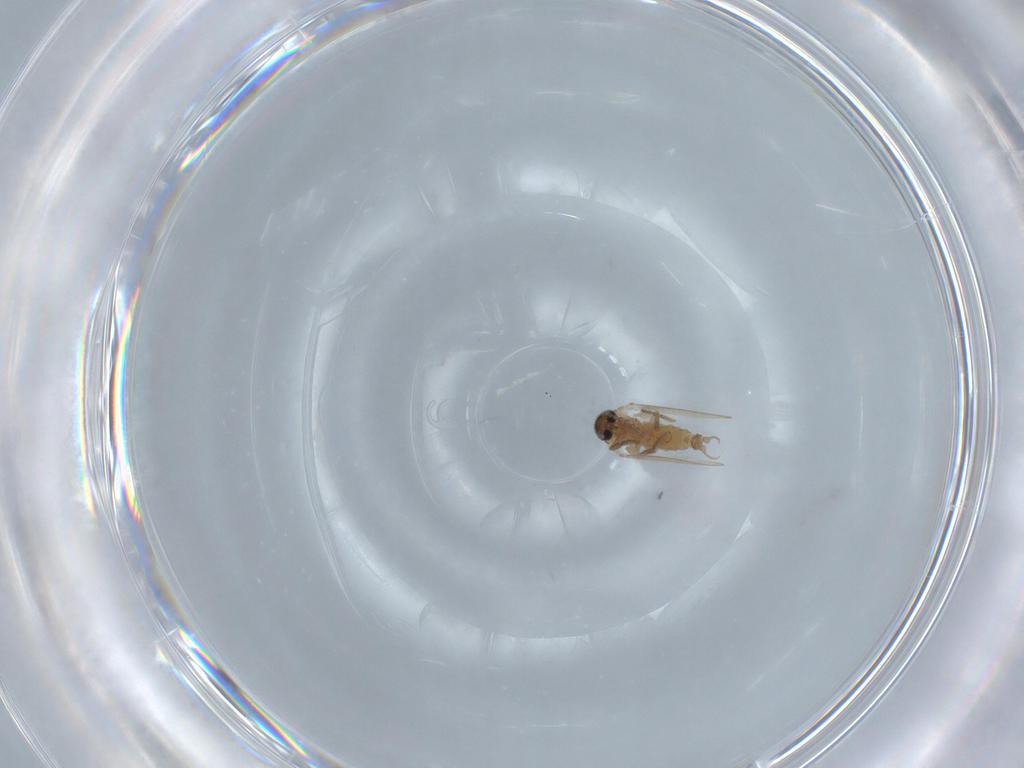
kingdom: Animalia
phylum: Arthropoda
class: Insecta
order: Diptera
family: Psychodidae
